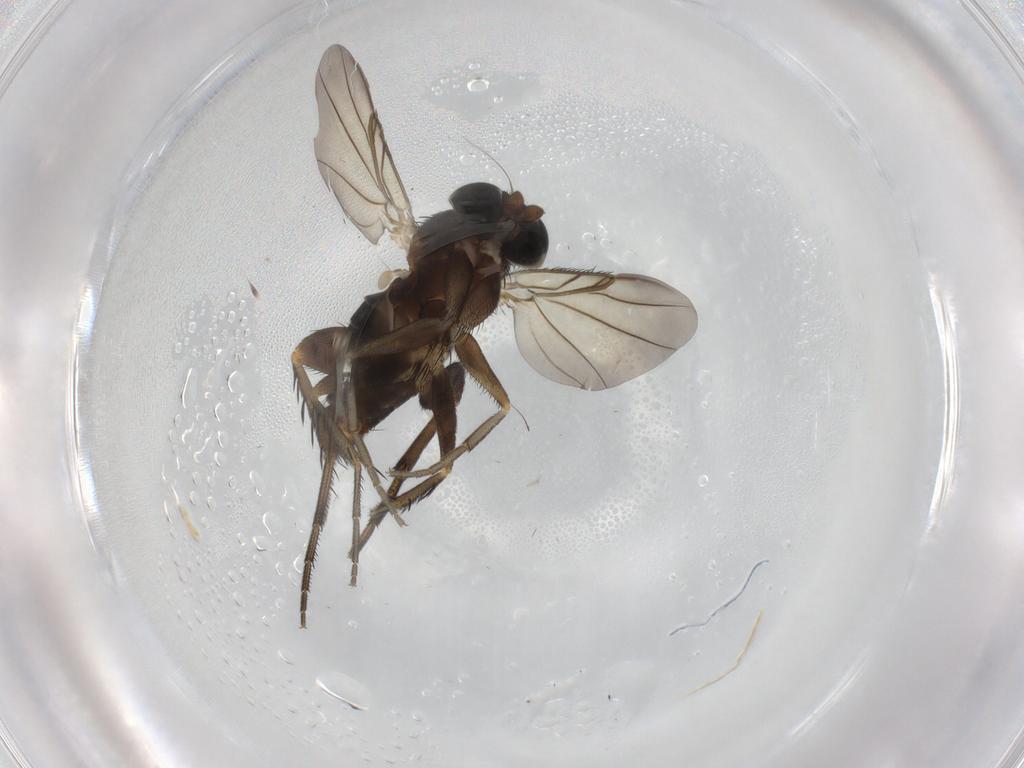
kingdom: Animalia
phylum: Arthropoda
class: Insecta
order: Diptera
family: Phoridae
